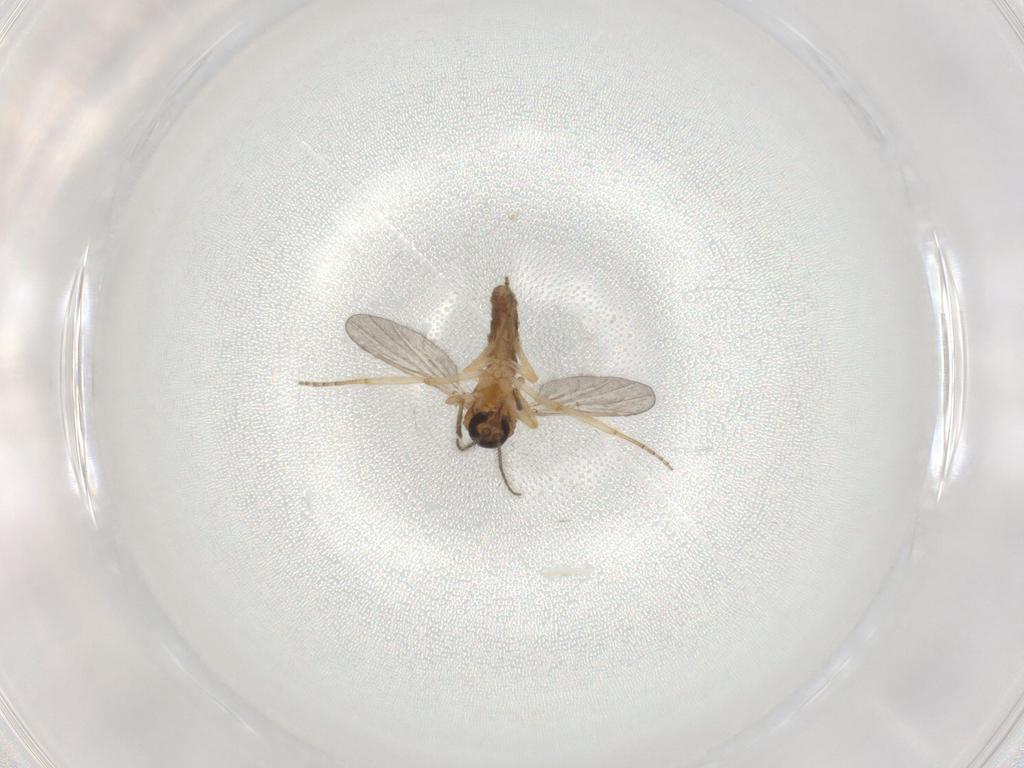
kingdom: Animalia
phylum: Arthropoda
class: Insecta
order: Diptera
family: Ceratopogonidae
